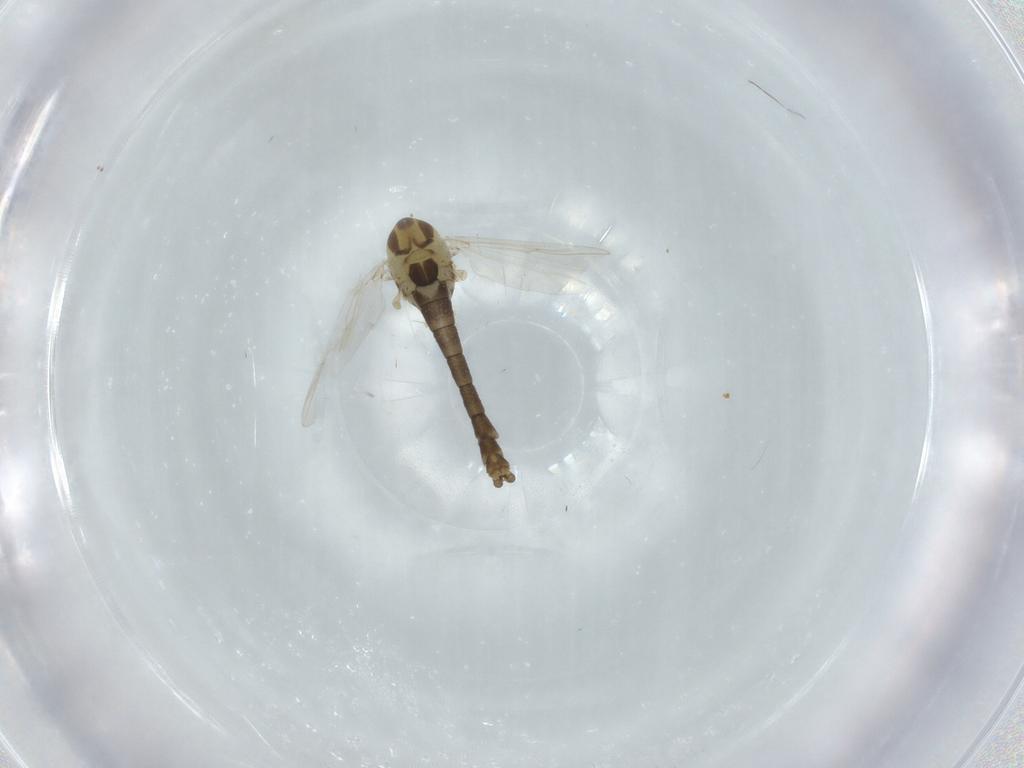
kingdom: Animalia
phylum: Arthropoda
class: Insecta
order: Diptera
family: Chironomidae
